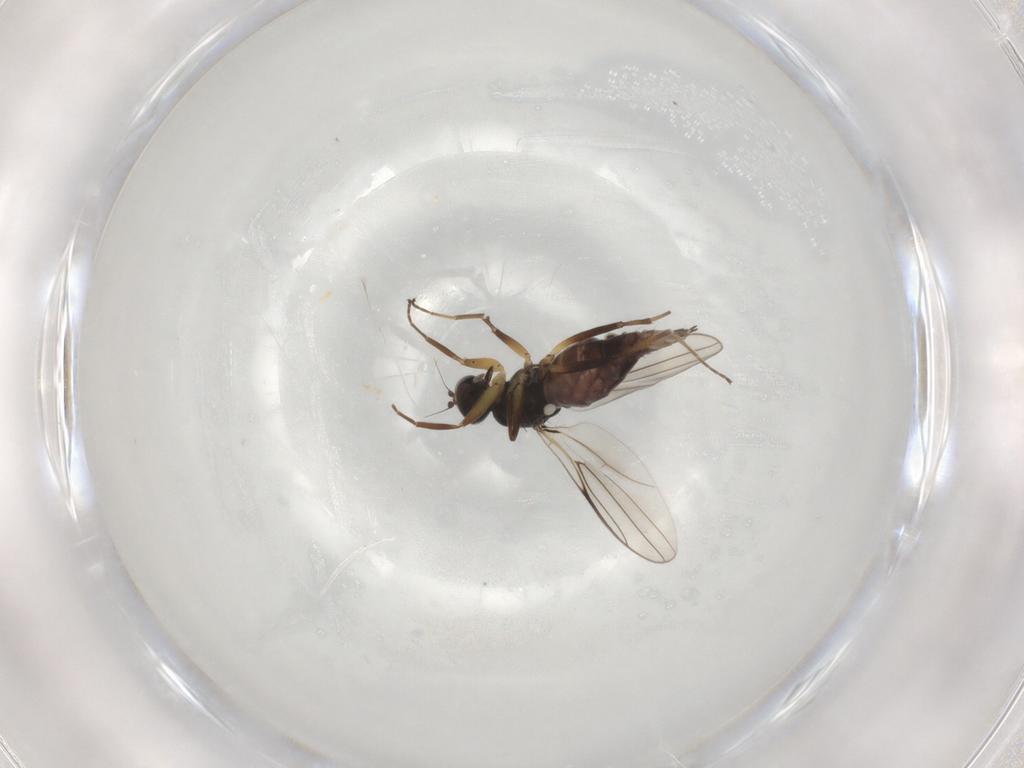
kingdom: Animalia
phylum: Arthropoda
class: Insecta
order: Diptera
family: Hybotidae
